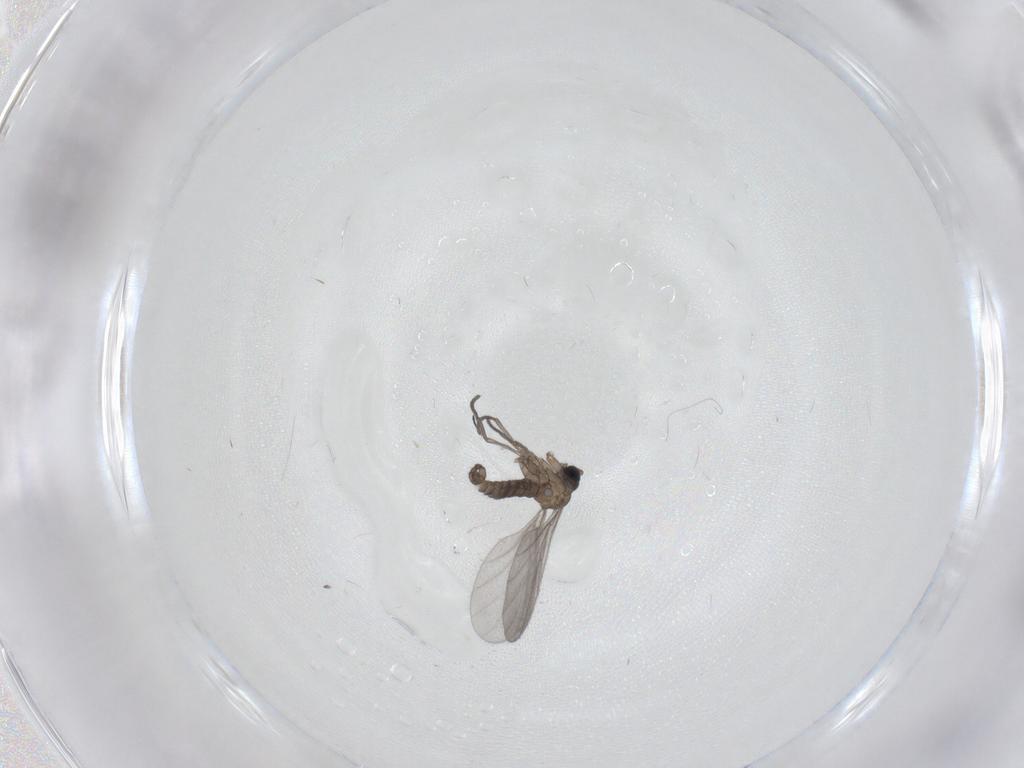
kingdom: Animalia
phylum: Arthropoda
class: Insecta
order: Diptera
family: Sciaridae
